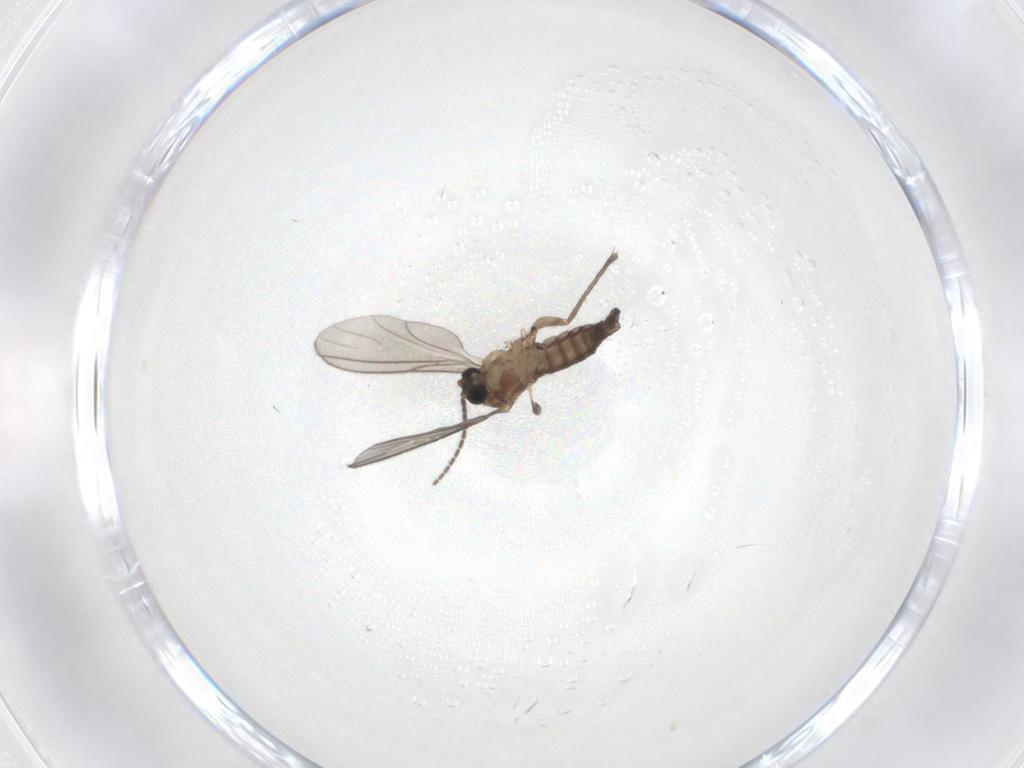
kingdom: Animalia
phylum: Arthropoda
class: Insecta
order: Diptera
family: Sciaridae
